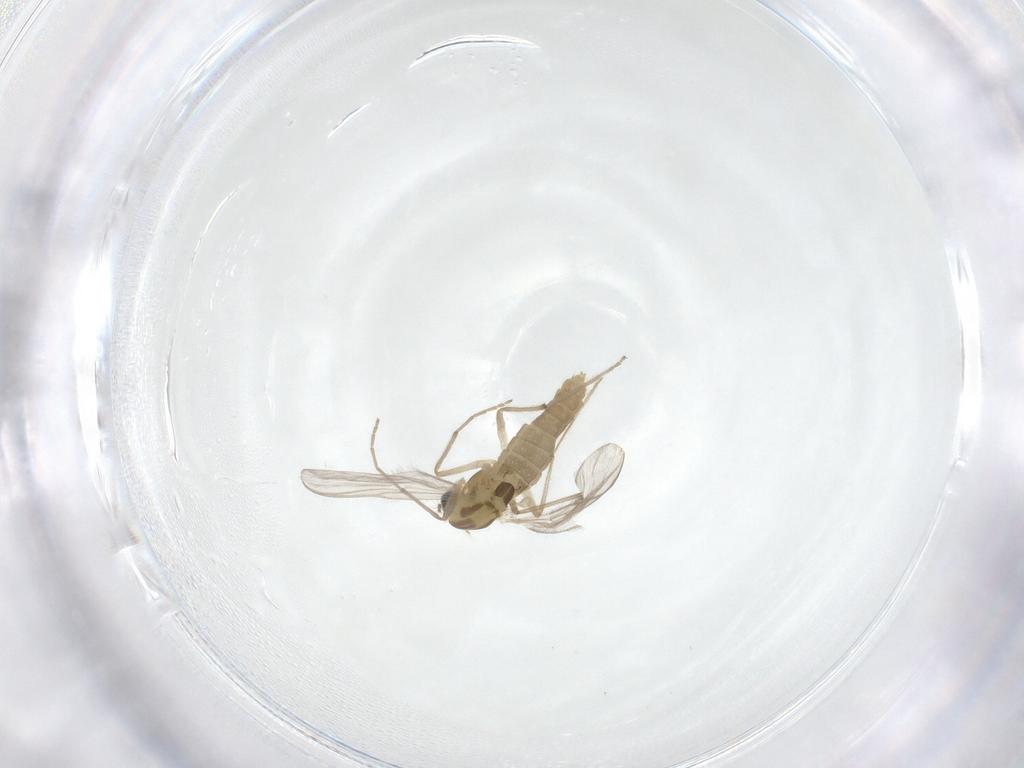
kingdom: Animalia
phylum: Arthropoda
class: Insecta
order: Diptera
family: Chironomidae
